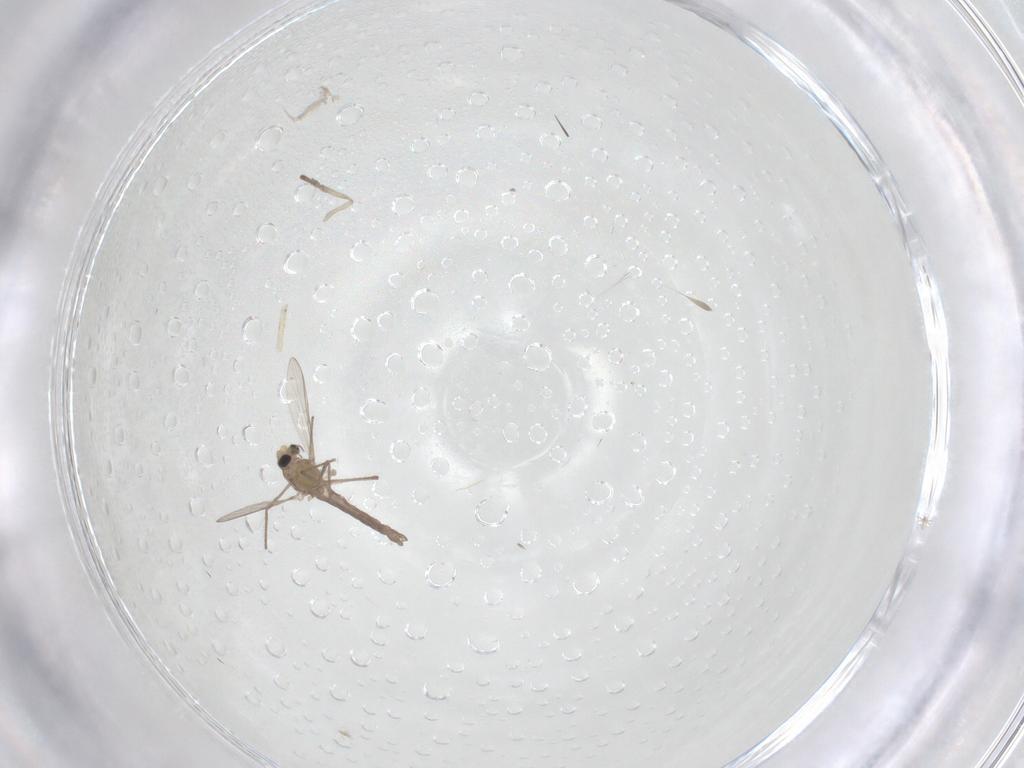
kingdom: Animalia
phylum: Arthropoda
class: Insecta
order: Diptera
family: Chironomidae
